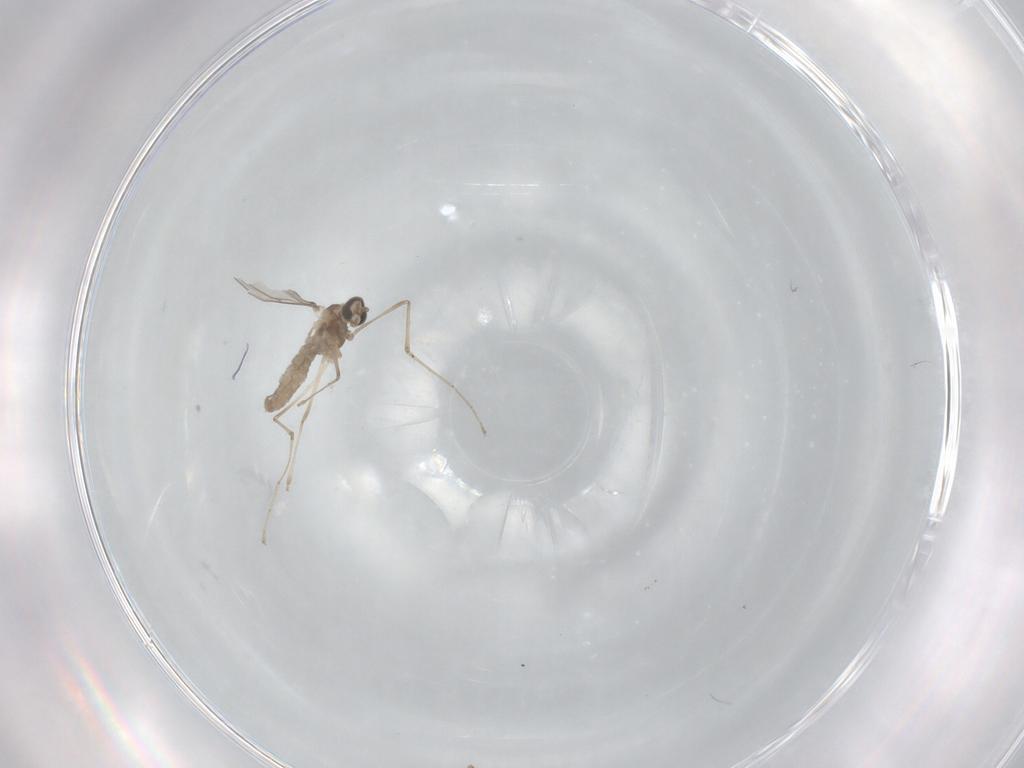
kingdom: Animalia
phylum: Arthropoda
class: Insecta
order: Diptera
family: Cecidomyiidae
